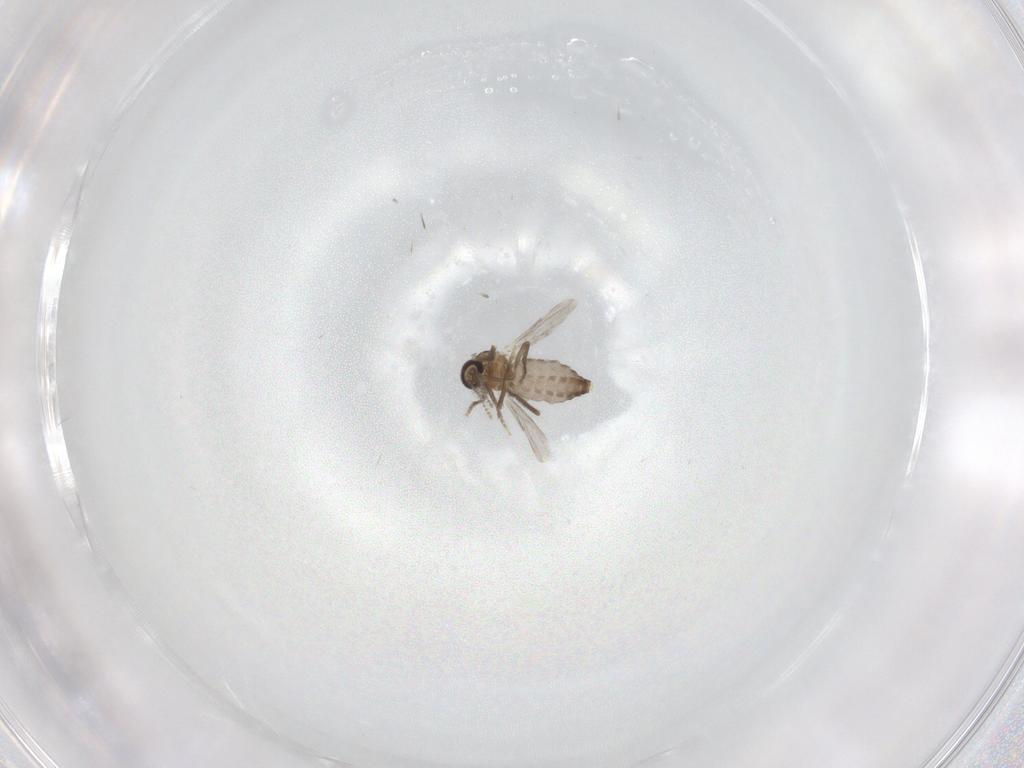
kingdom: Animalia
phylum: Arthropoda
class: Insecta
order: Diptera
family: Ceratopogonidae
